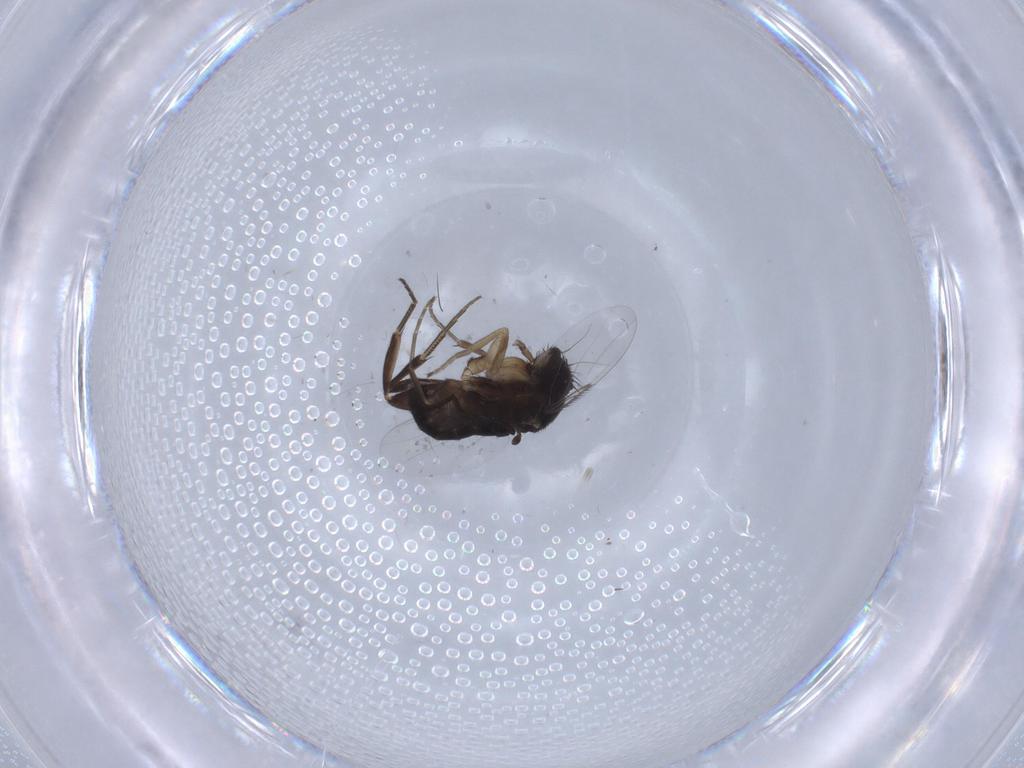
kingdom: Animalia
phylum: Arthropoda
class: Insecta
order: Diptera
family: Phoridae
